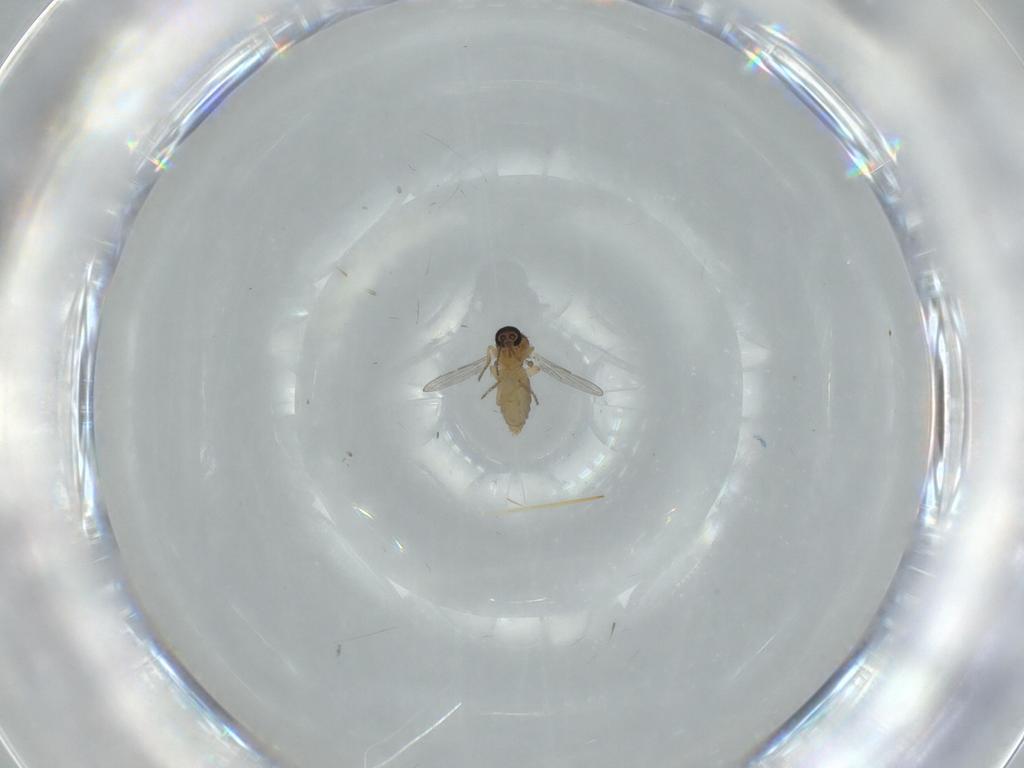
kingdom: Animalia
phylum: Arthropoda
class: Insecta
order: Diptera
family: Ceratopogonidae
